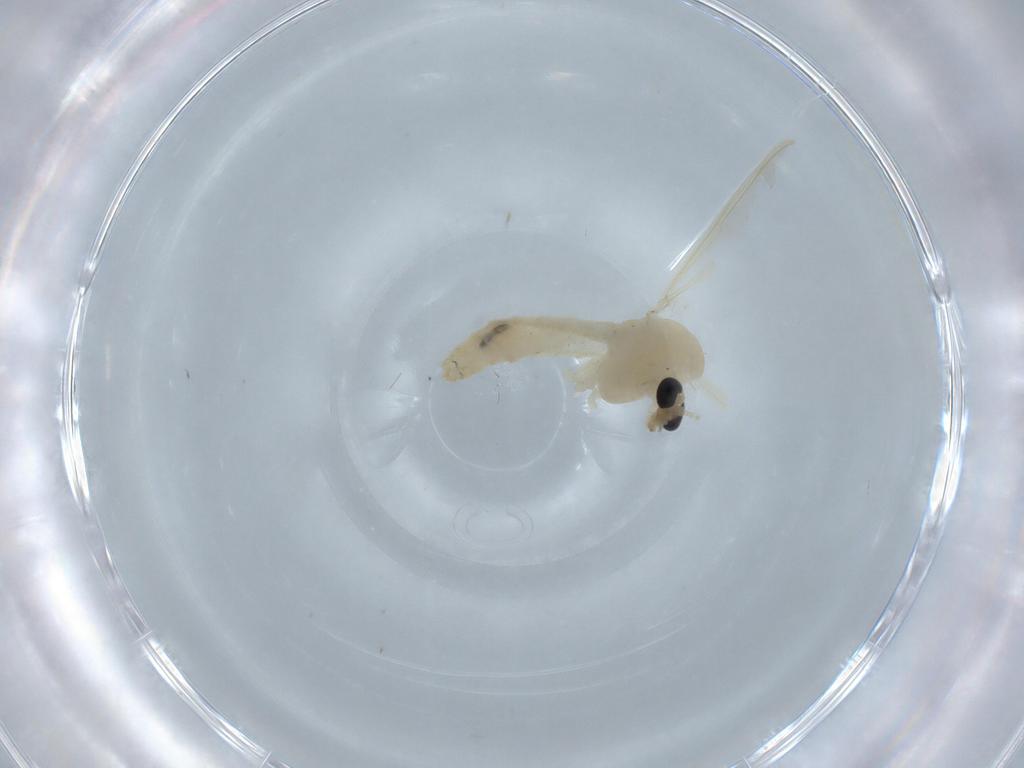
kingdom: Animalia
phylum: Arthropoda
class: Insecta
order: Diptera
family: Chironomidae
